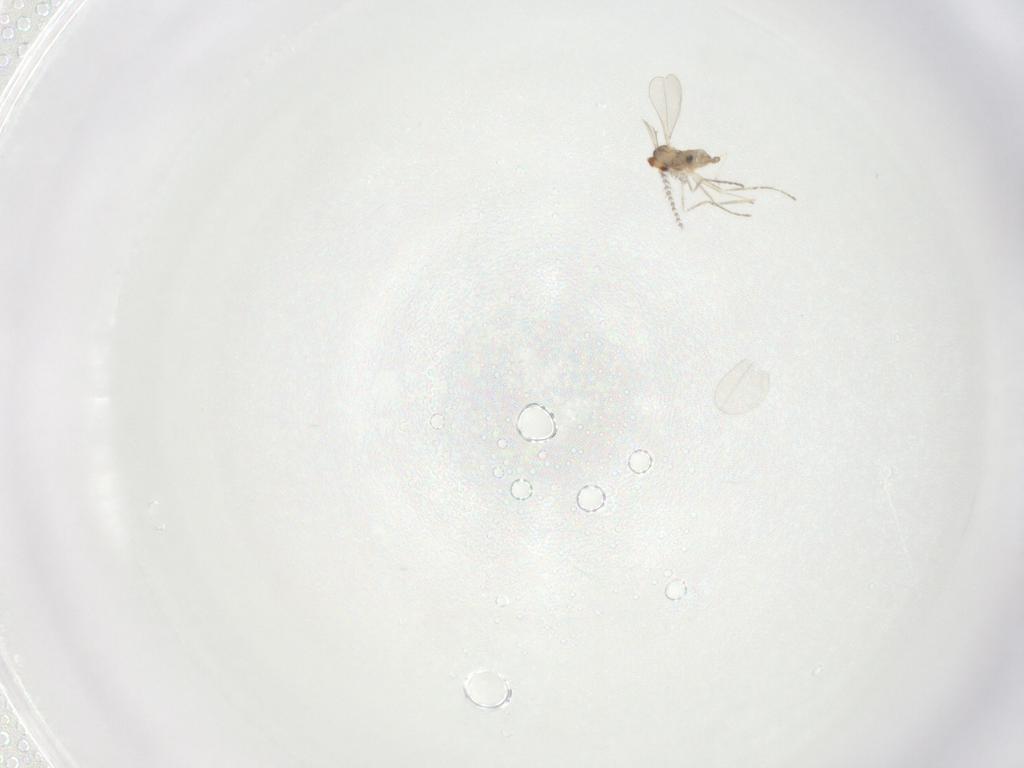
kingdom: Animalia
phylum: Arthropoda
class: Insecta
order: Diptera
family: Cecidomyiidae
